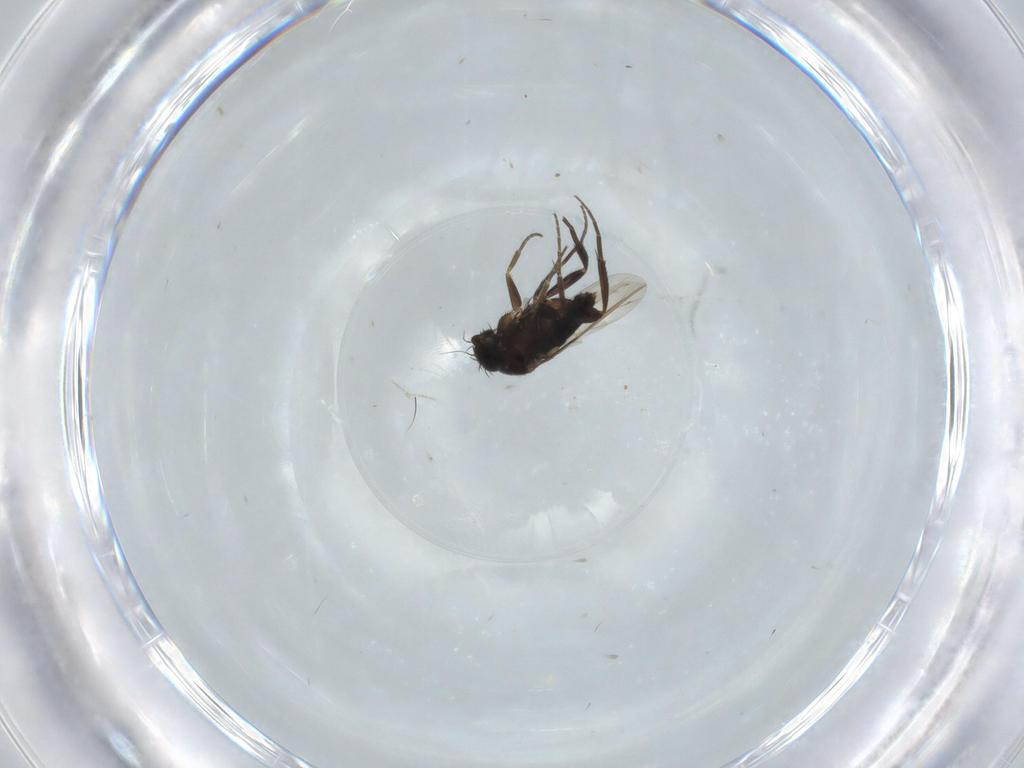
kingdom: Animalia
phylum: Arthropoda
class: Insecta
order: Diptera
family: Phoridae
